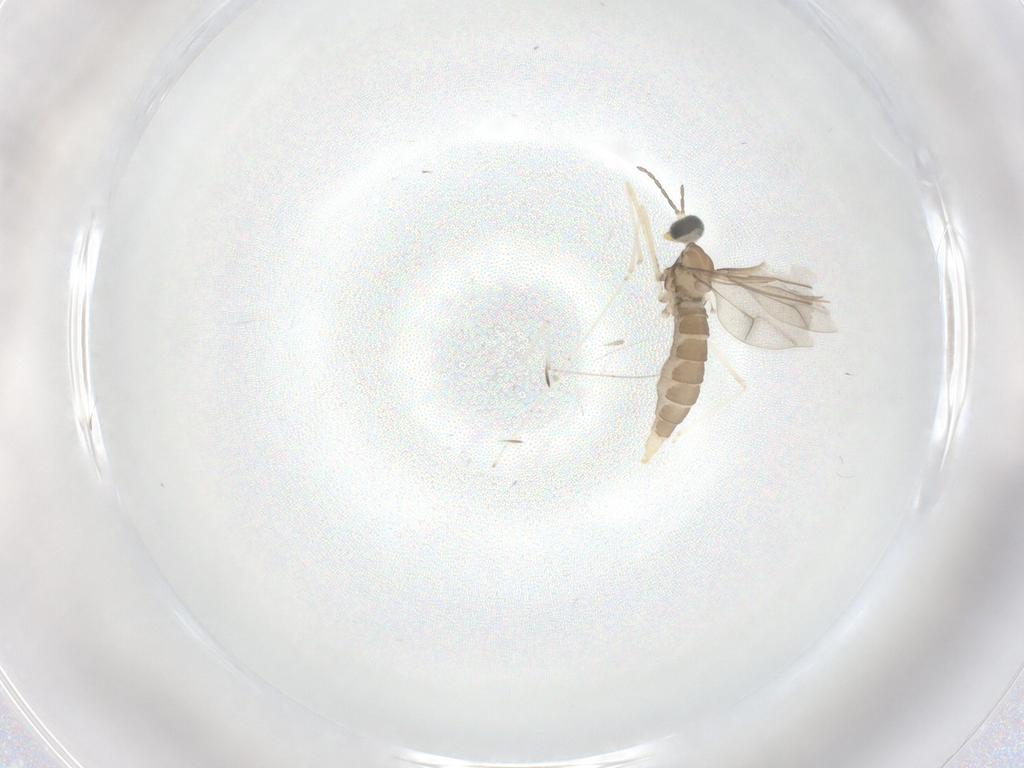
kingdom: Animalia
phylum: Arthropoda
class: Insecta
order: Diptera
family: Cecidomyiidae
